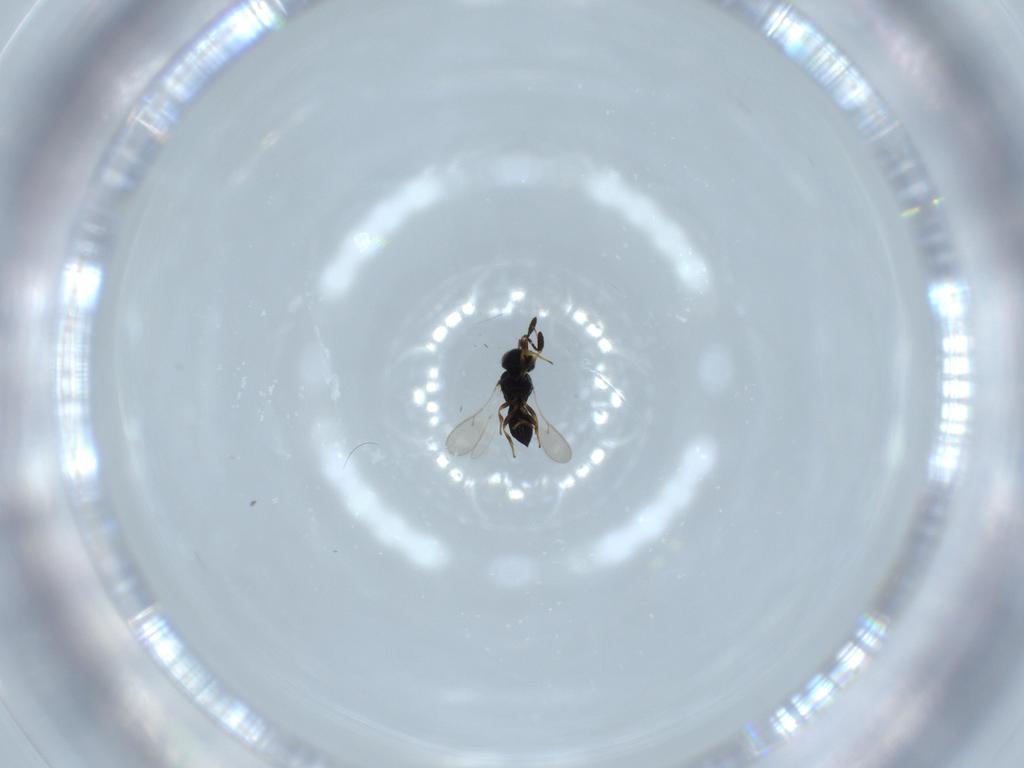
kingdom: Animalia
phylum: Arthropoda
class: Insecta
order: Hymenoptera
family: Scelionidae
